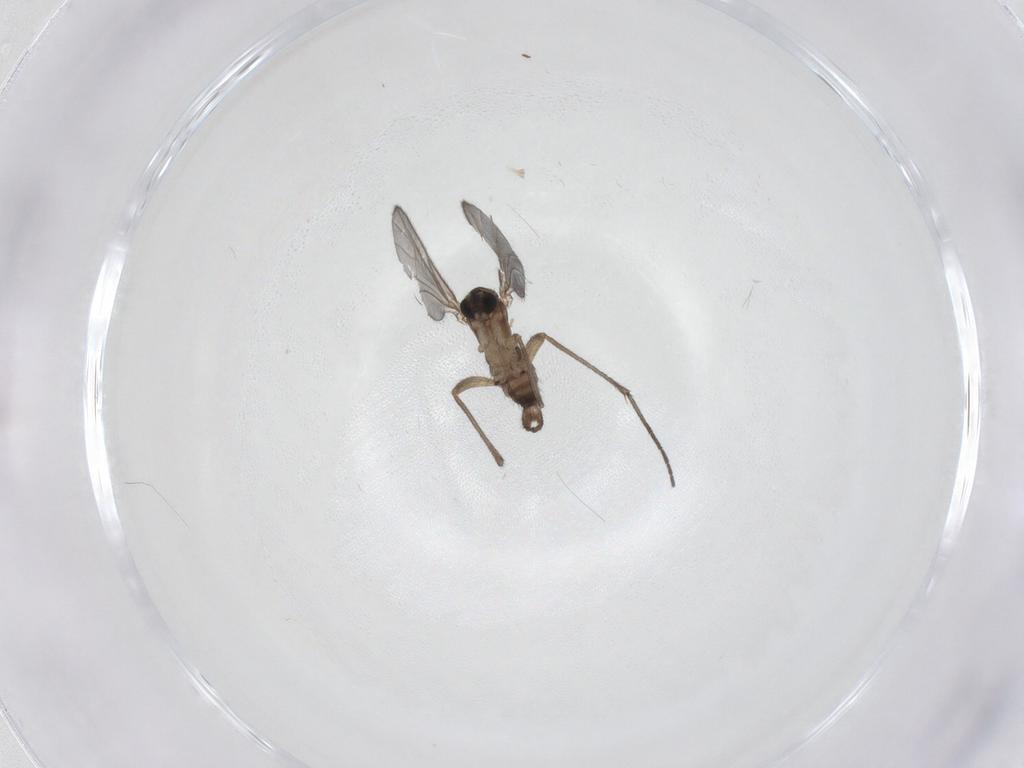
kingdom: Animalia
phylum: Arthropoda
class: Insecta
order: Diptera
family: Sciaridae
